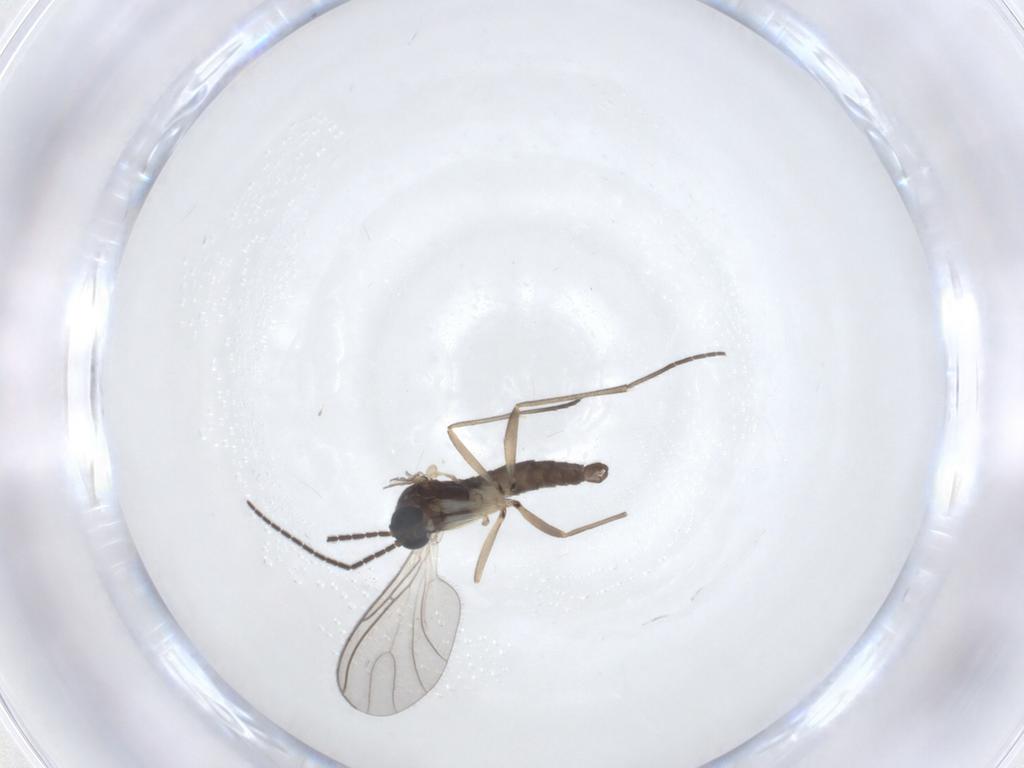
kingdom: Animalia
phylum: Arthropoda
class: Insecta
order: Diptera
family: Sciaridae
